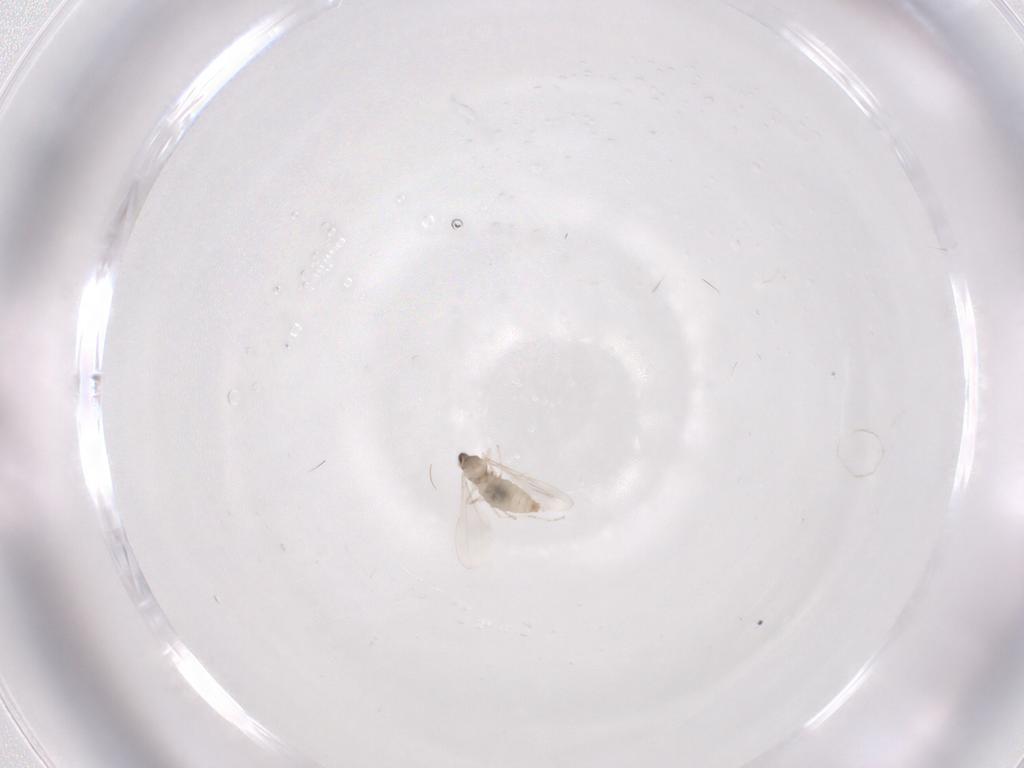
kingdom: Animalia
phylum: Arthropoda
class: Insecta
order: Diptera
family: Cecidomyiidae
